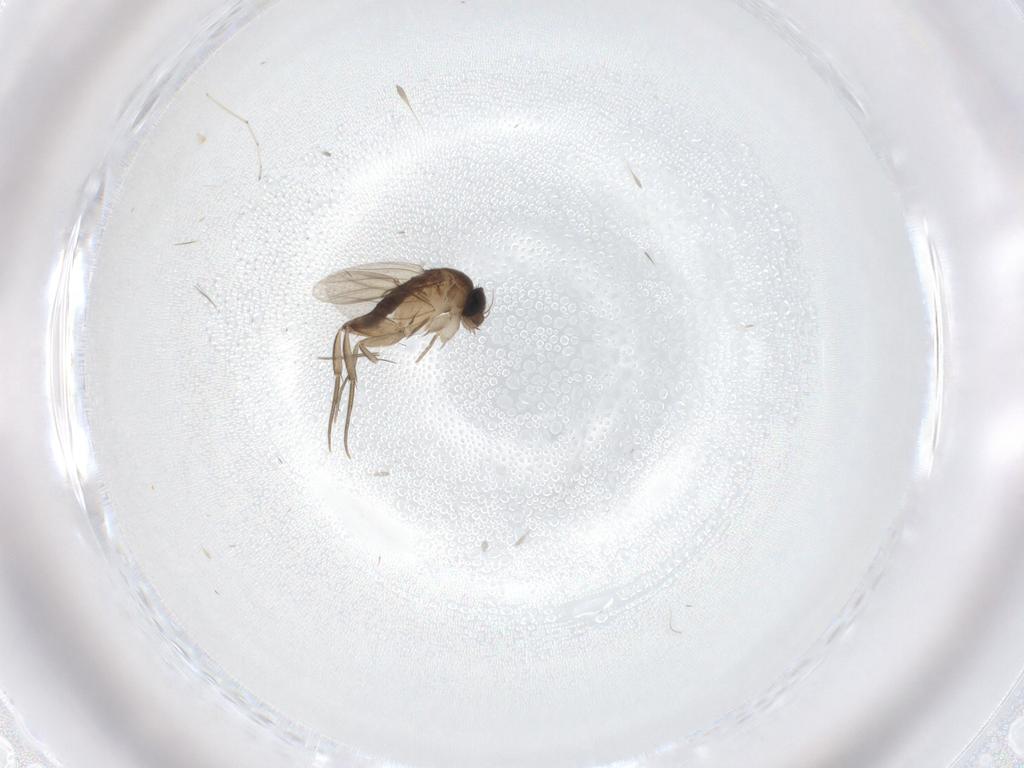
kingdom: Animalia
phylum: Arthropoda
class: Insecta
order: Diptera
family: Phoridae
